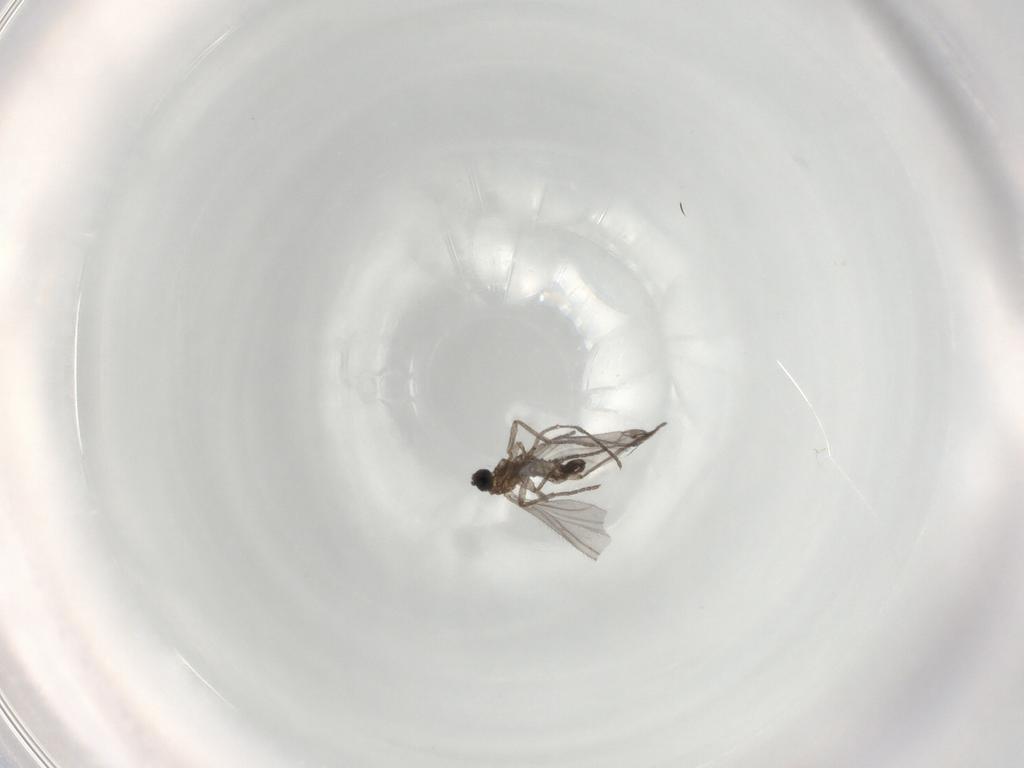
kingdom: Animalia
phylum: Arthropoda
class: Insecta
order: Diptera
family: Sciaridae
